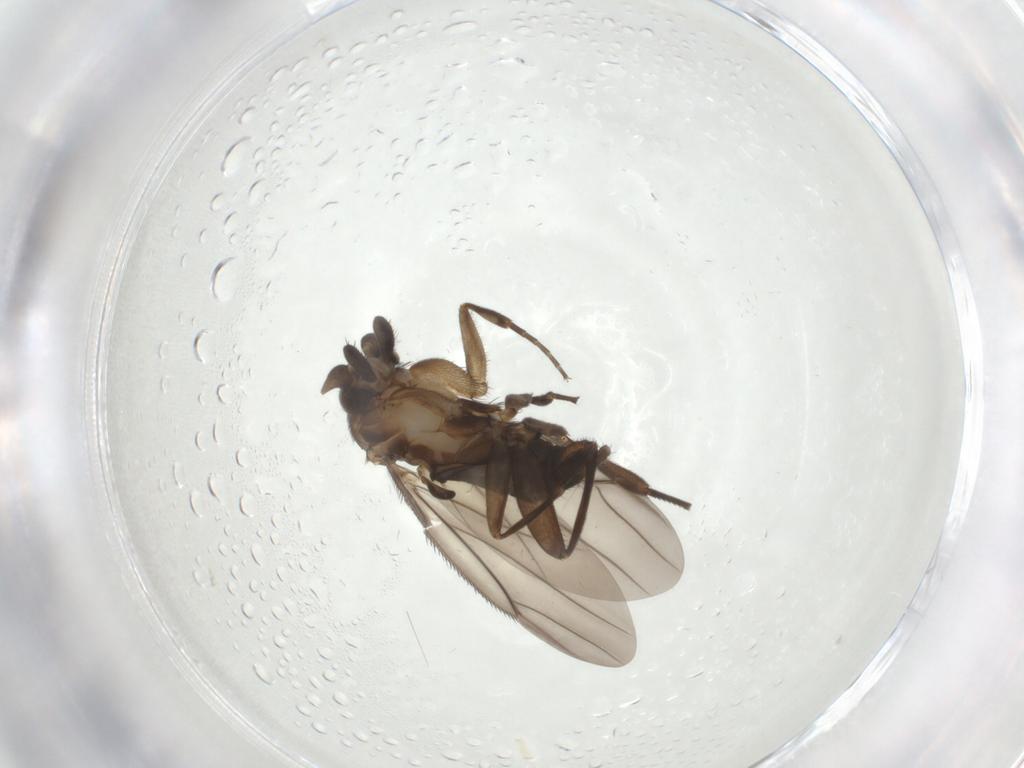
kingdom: Animalia
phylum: Arthropoda
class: Insecta
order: Diptera
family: Phoridae
